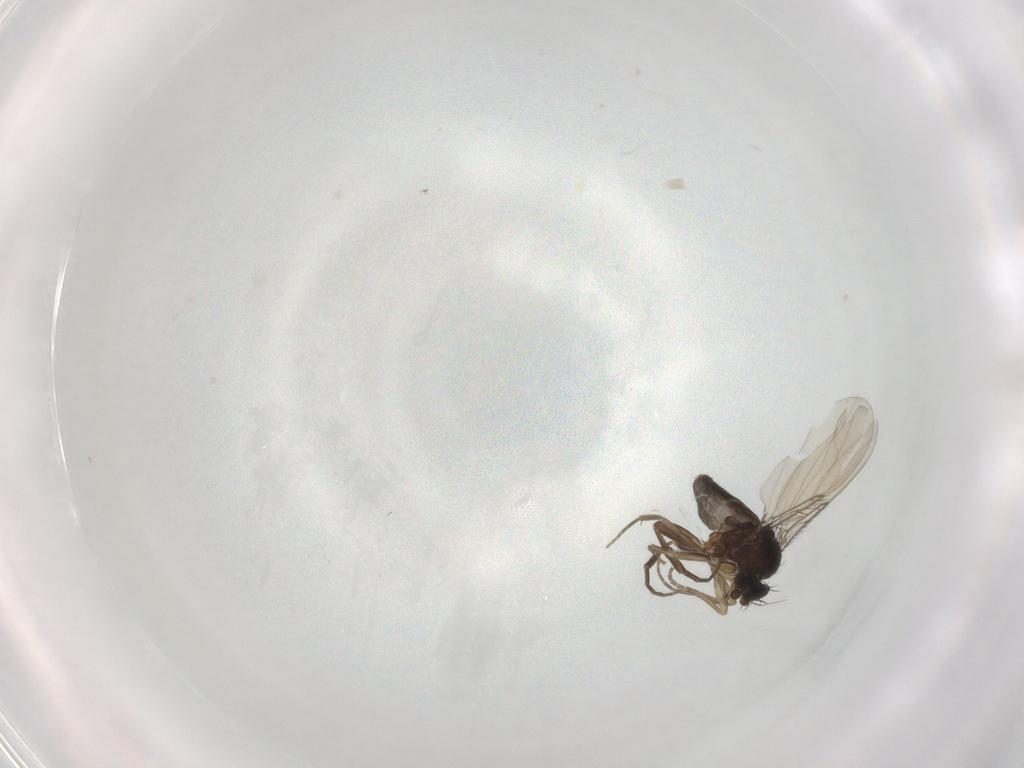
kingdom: Animalia
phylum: Arthropoda
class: Insecta
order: Diptera
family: Phoridae
